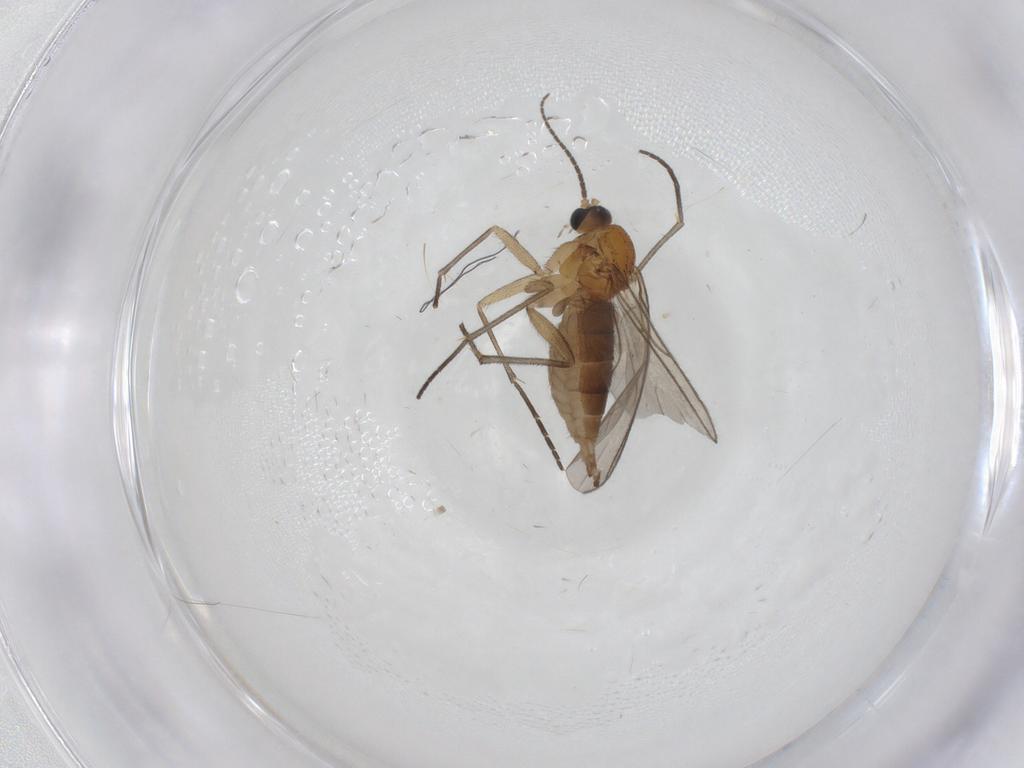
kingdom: Animalia
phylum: Arthropoda
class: Insecta
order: Diptera
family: Sciaridae
